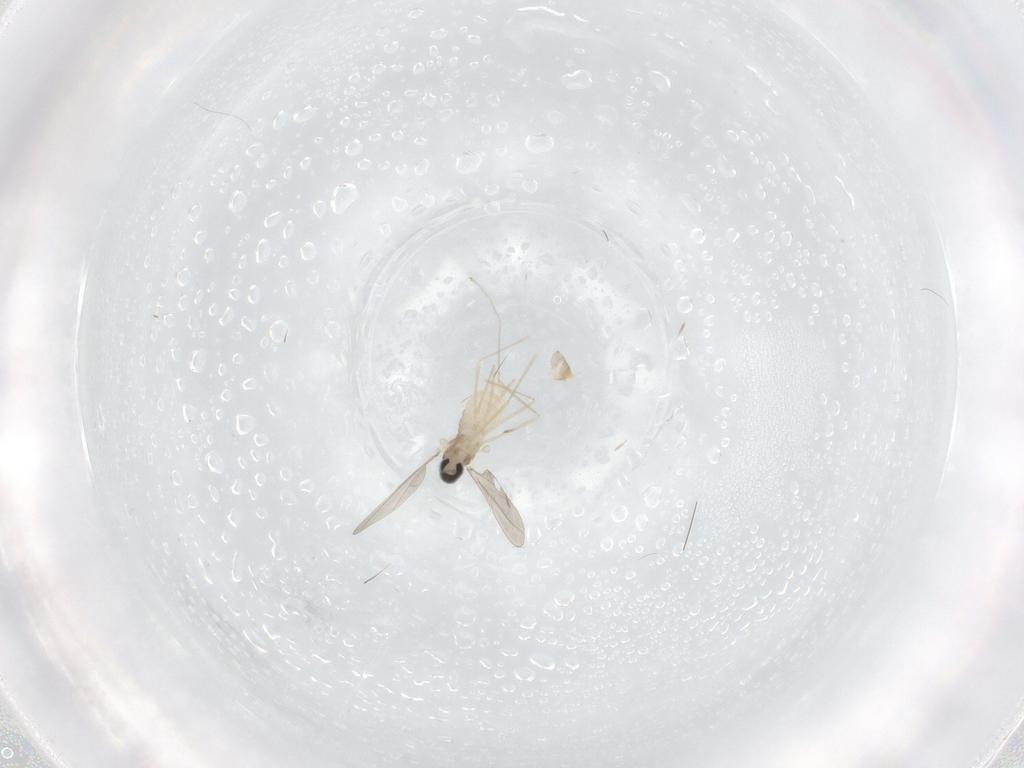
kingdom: Animalia
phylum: Arthropoda
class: Insecta
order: Diptera
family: Cecidomyiidae
